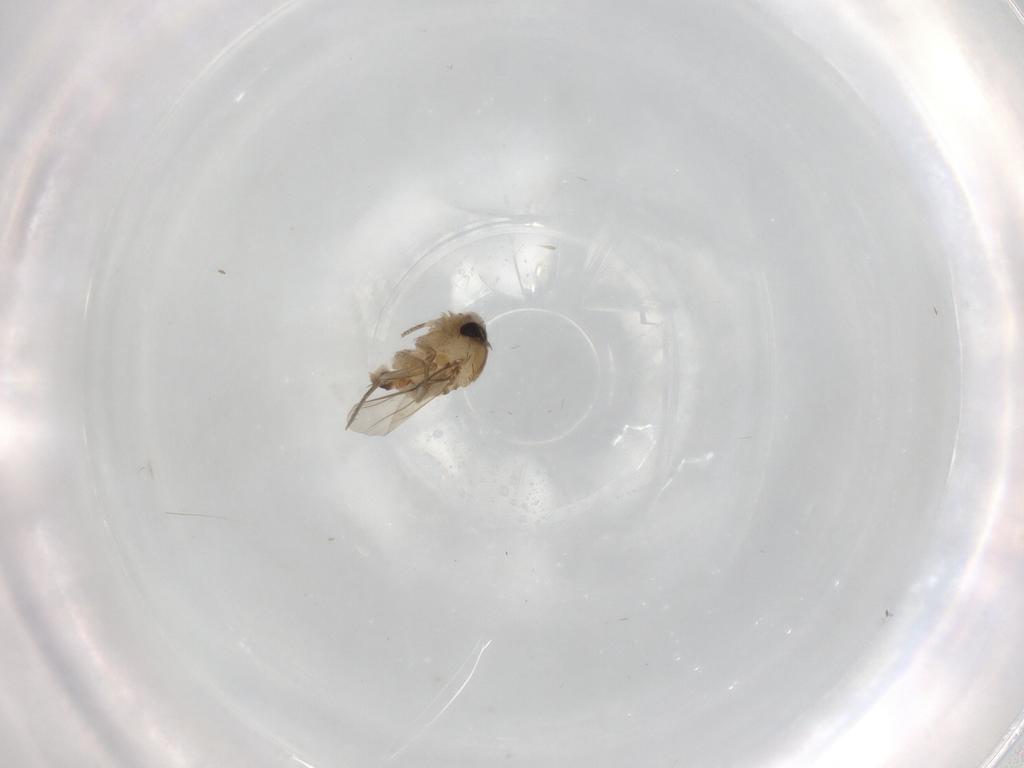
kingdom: Animalia
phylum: Arthropoda
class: Insecta
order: Diptera
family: Phoridae
